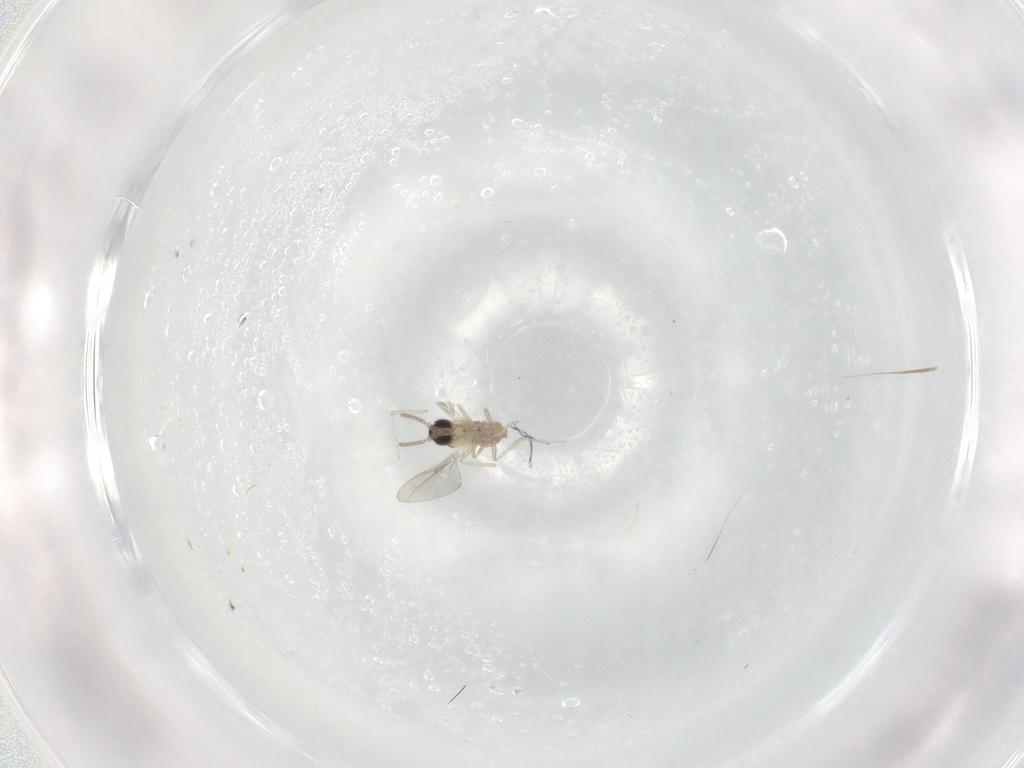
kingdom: Animalia
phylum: Arthropoda
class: Insecta
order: Diptera
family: Cecidomyiidae
